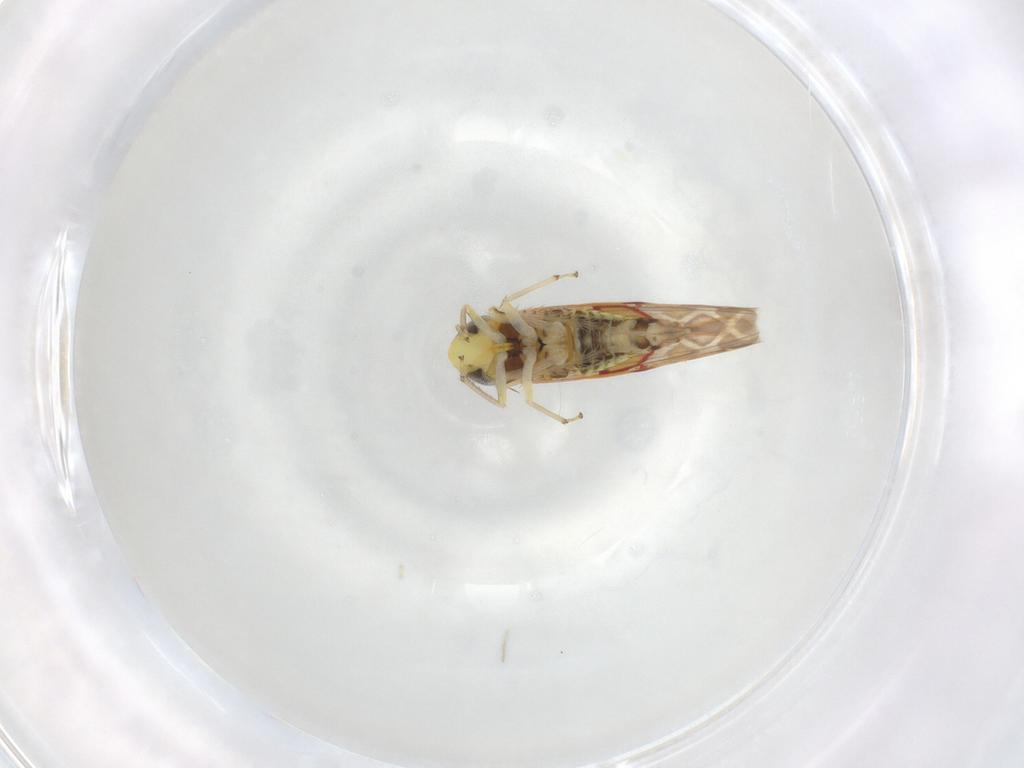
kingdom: Animalia
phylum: Arthropoda
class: Insecta
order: Hemiptera
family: Cicadellidae
